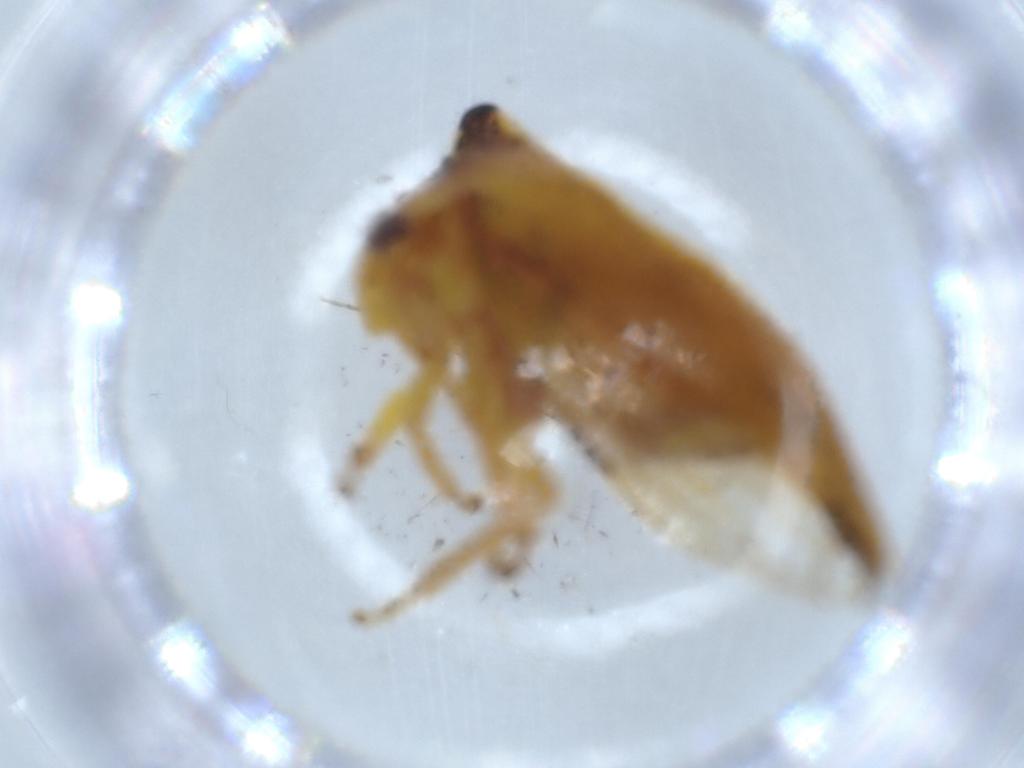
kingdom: Animalia
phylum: Arthropoda
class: Insecta
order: Hemiptera
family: Membracidae
